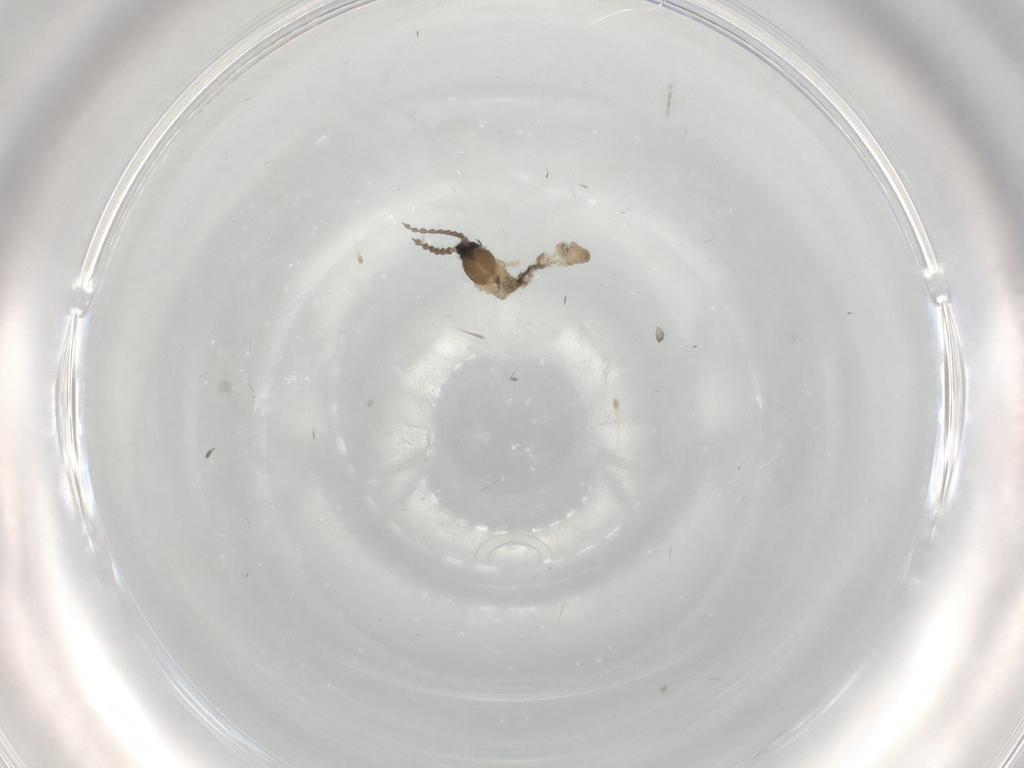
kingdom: Animalia
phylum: Arthropoda
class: Insecta
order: Diptera
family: Cecidomyiidae
